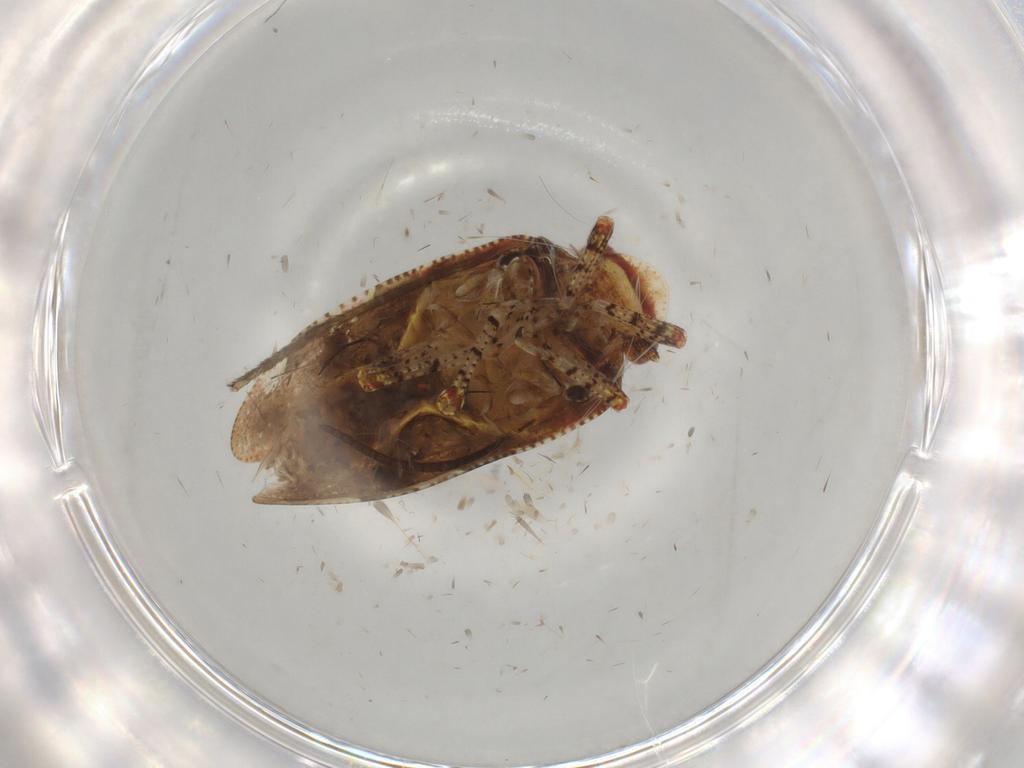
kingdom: Animalia
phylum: Arthropoda
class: Insecta
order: Hemiptera
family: Tettigometridae
